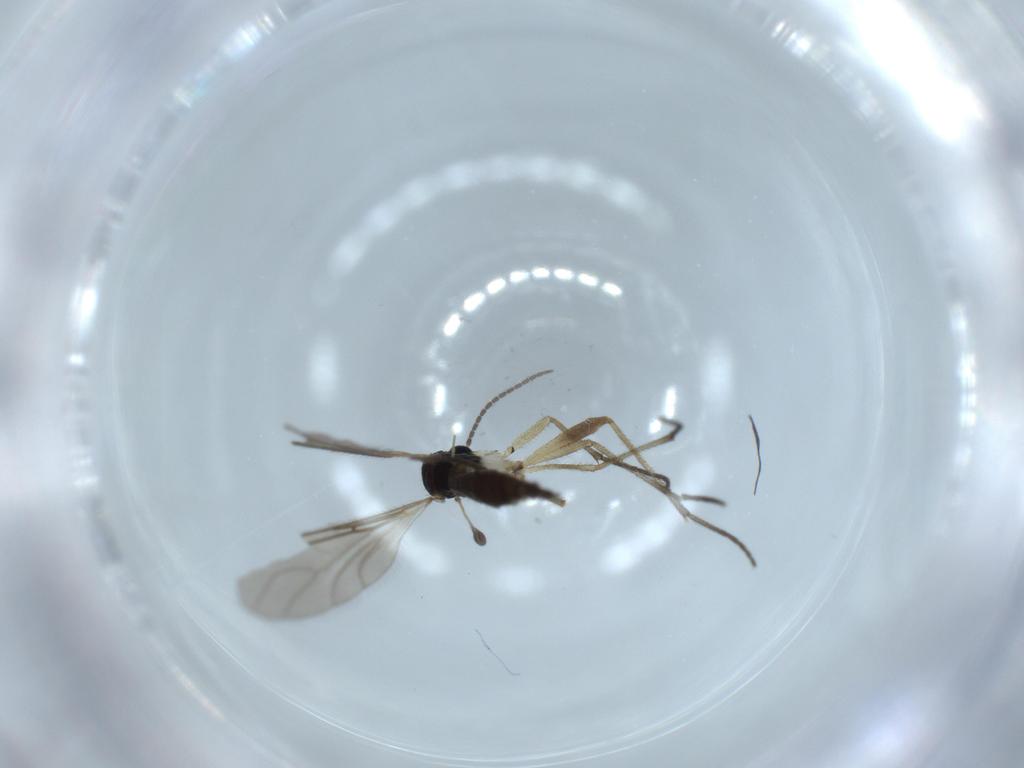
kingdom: Animalia
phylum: Arthropoda
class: Insecta
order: Diptera
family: Sciaridae
